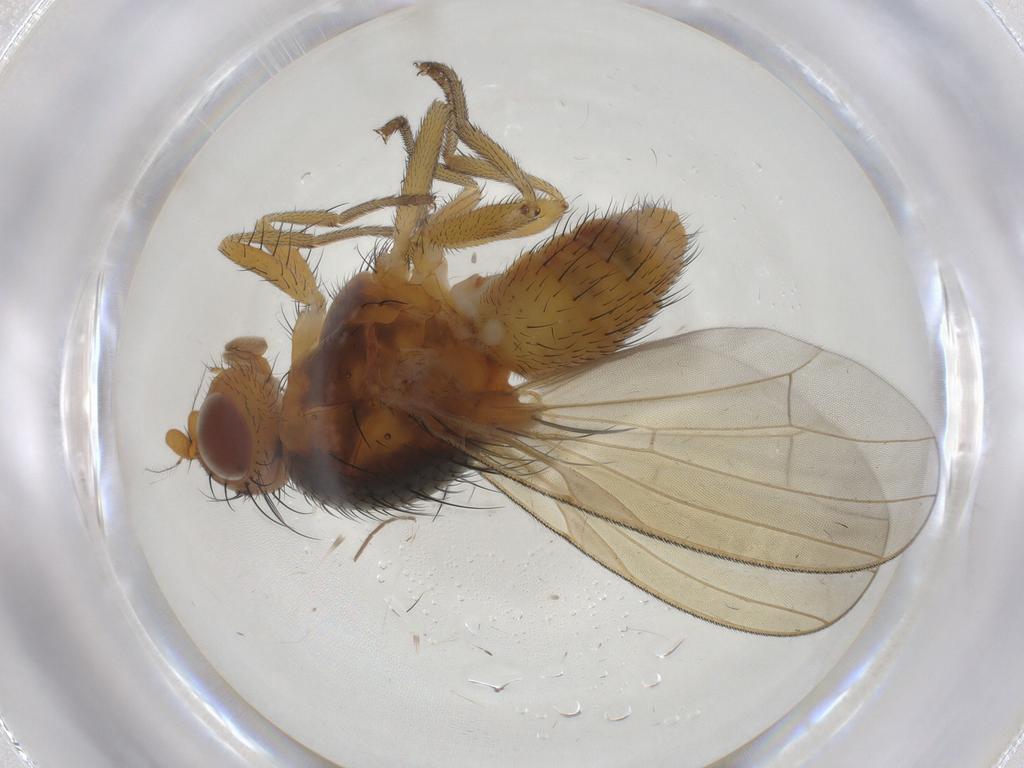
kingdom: Animalia
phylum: Arthropoda
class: Insecta
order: Diptera
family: Chironomidae
